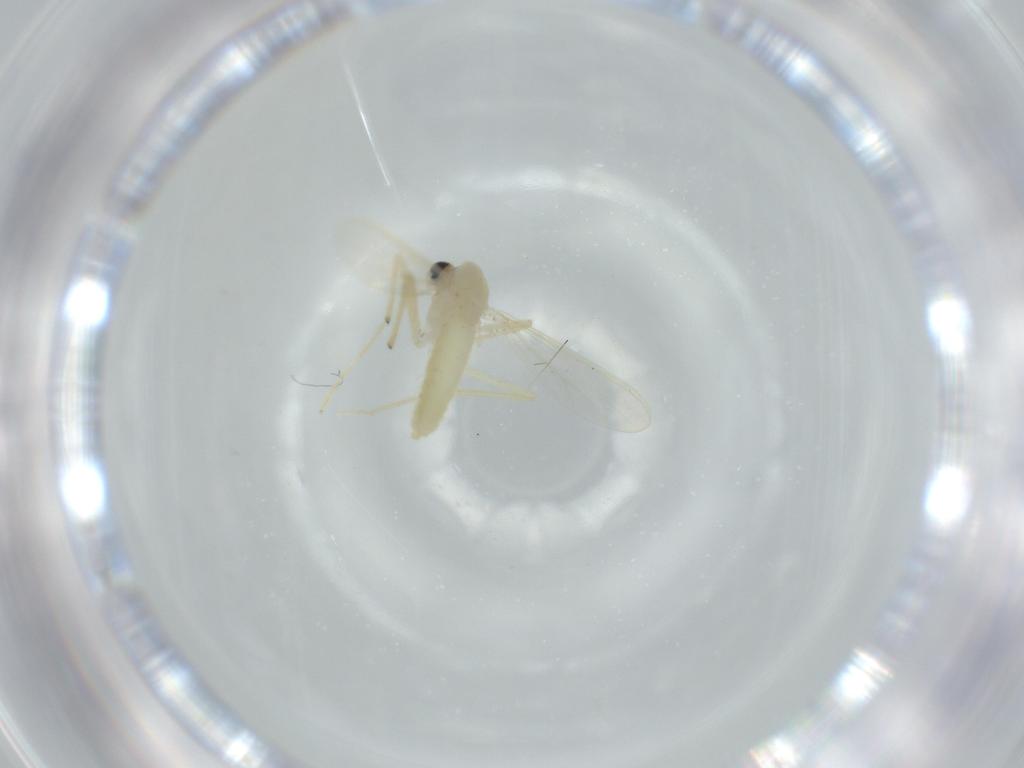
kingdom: Animalia
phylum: Arthropoda
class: Insecta
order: Diptera
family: Chironomidae
